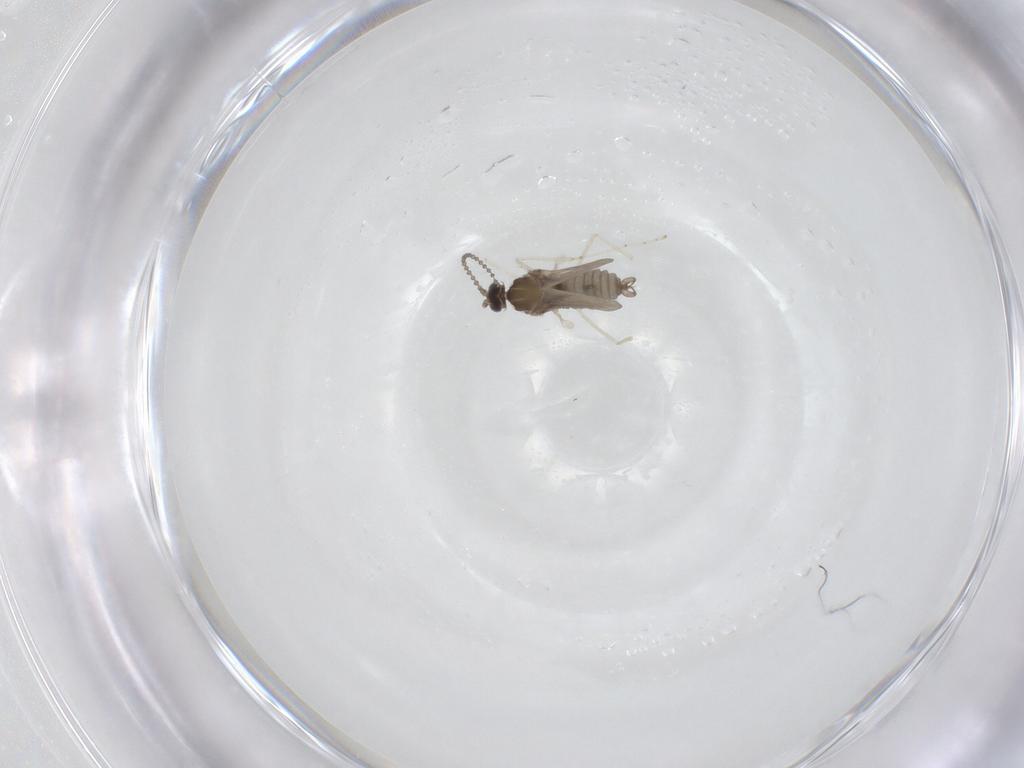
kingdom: Animalia
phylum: Arthropoda
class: Insecta
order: Diptera
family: Cecidomyiidae
